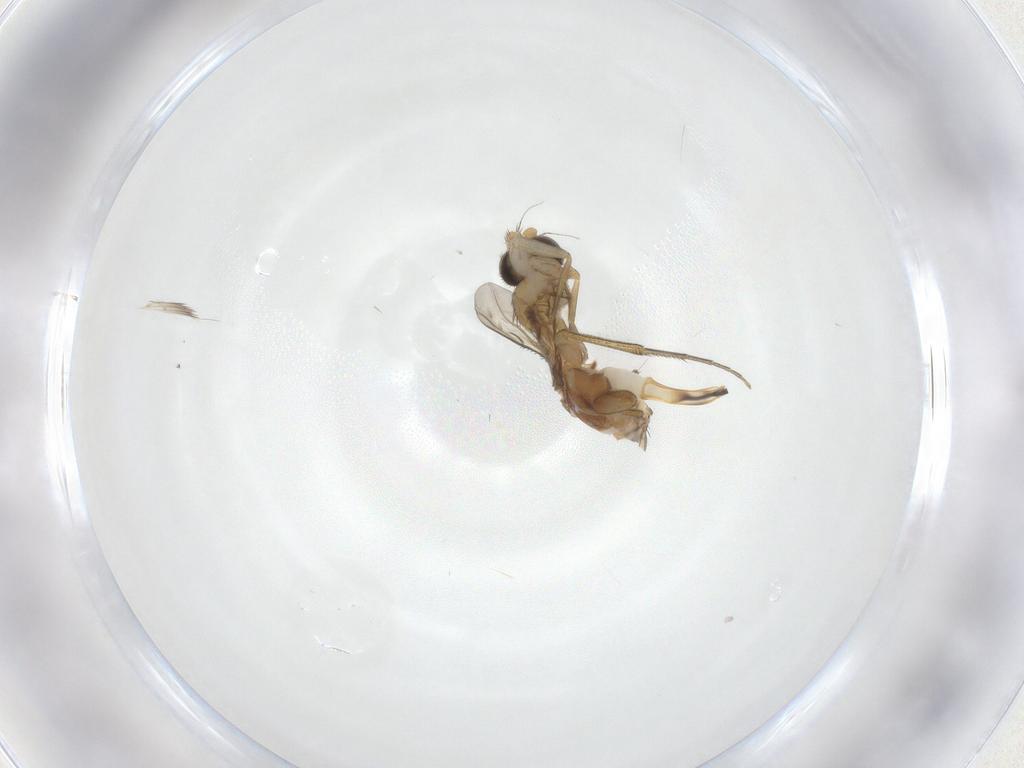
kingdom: Animalia
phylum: Arthropoda
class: Insecta
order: Diptera
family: Phoridae
